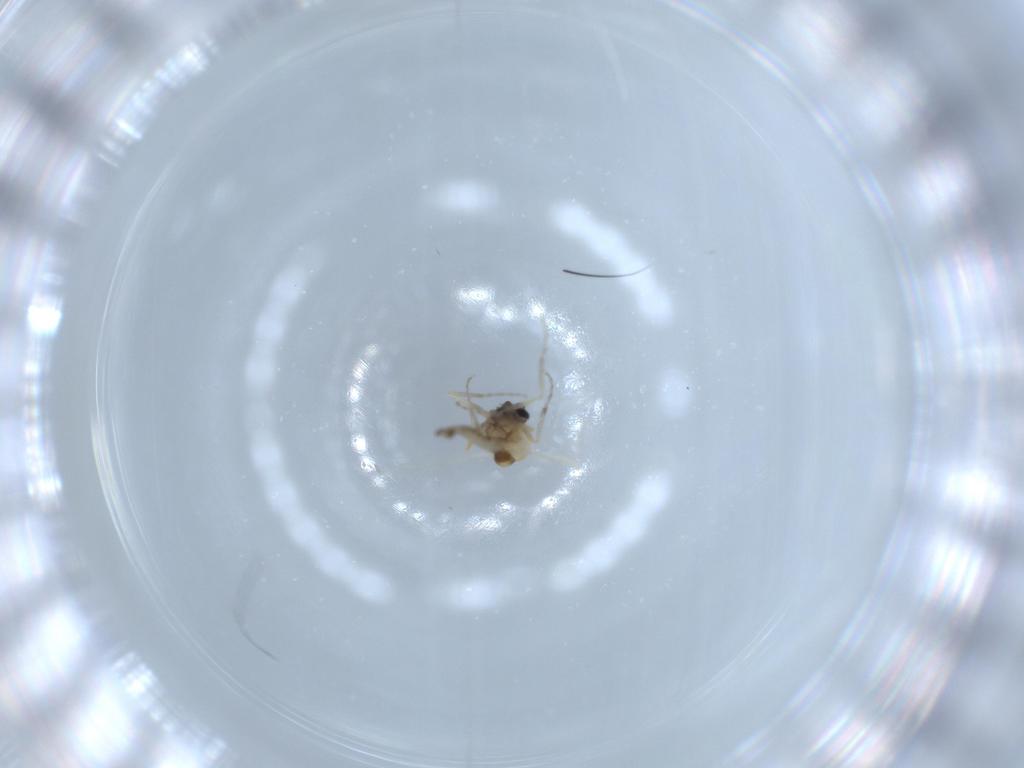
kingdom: Animalia
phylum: Arthropoda
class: Insecta
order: Diptera
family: Ceratopogonidae
